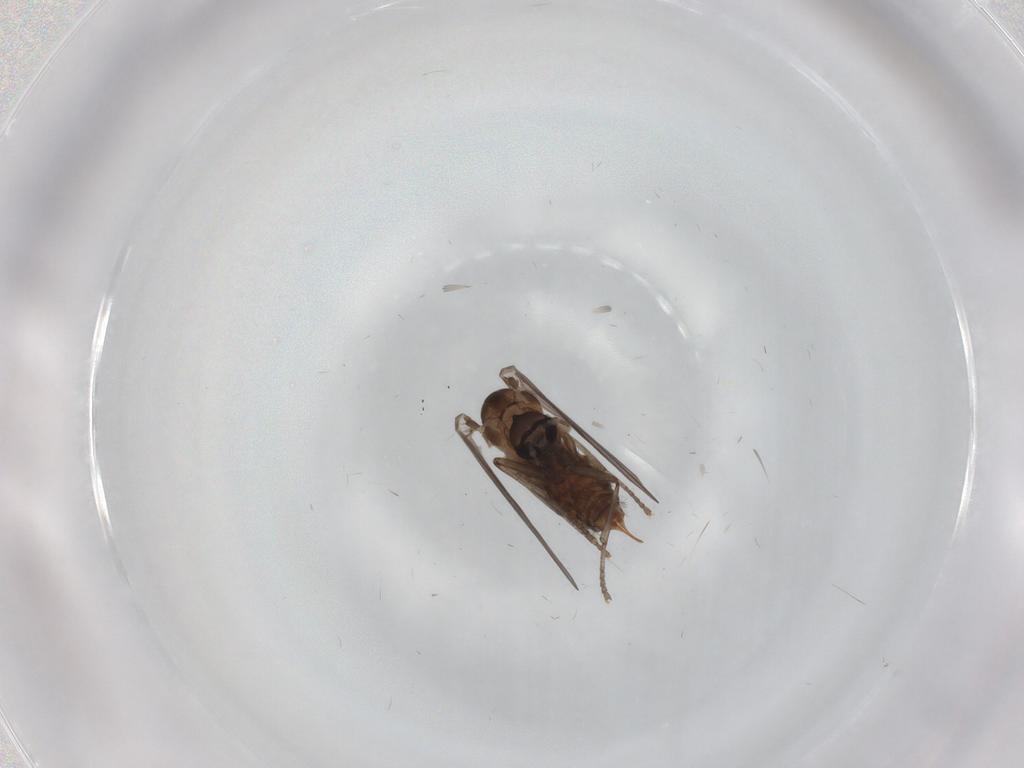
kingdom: Animalia
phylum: Arthropoda
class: Insecta
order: Diptera
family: Psychodidae
